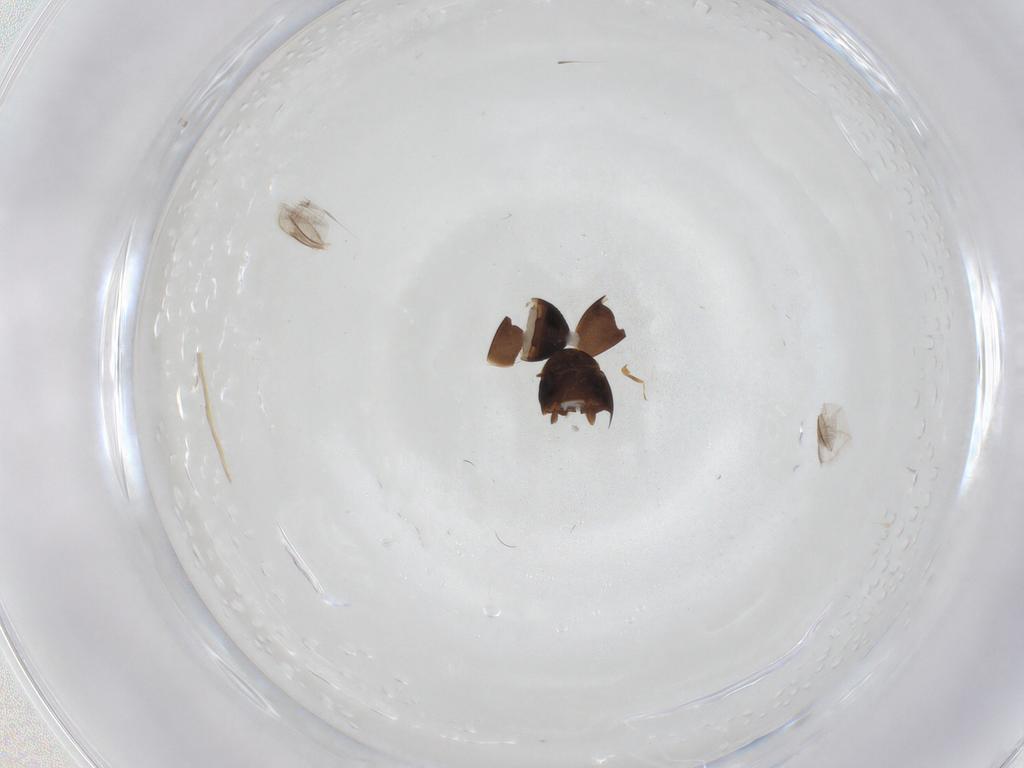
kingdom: Animalia
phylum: Arthropoda
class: Insecta
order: Coleoptera
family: Corylophidae
